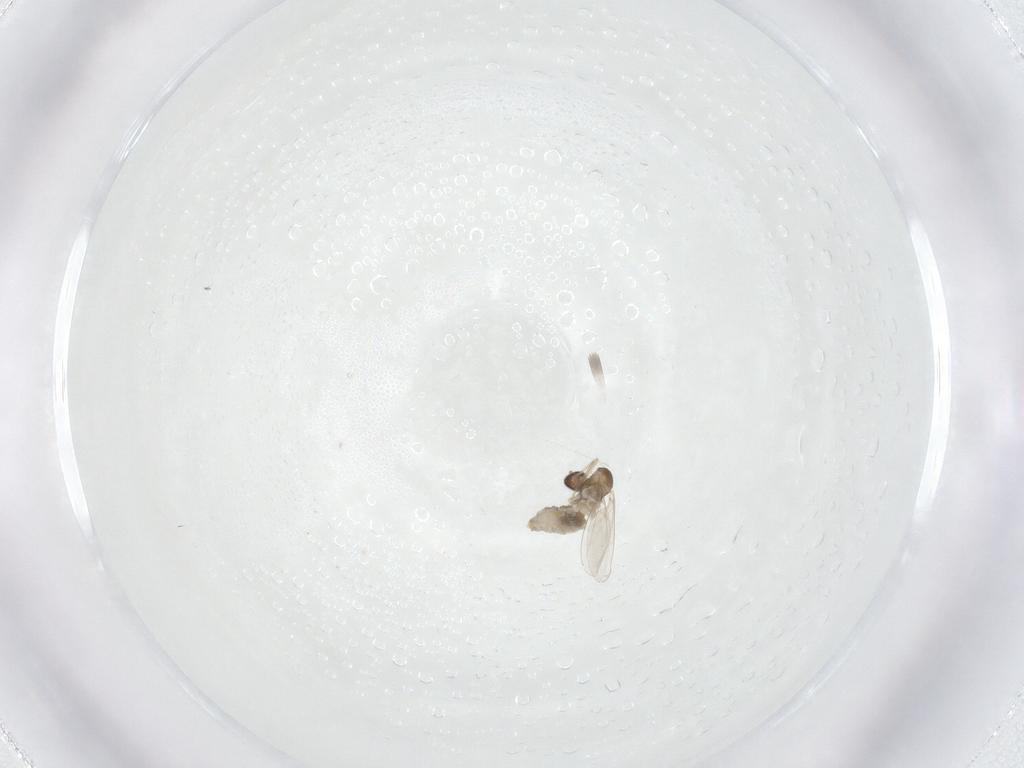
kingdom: Animalia
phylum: Arthropoda
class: Insecta
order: Diptera
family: Cecidomyiidae
